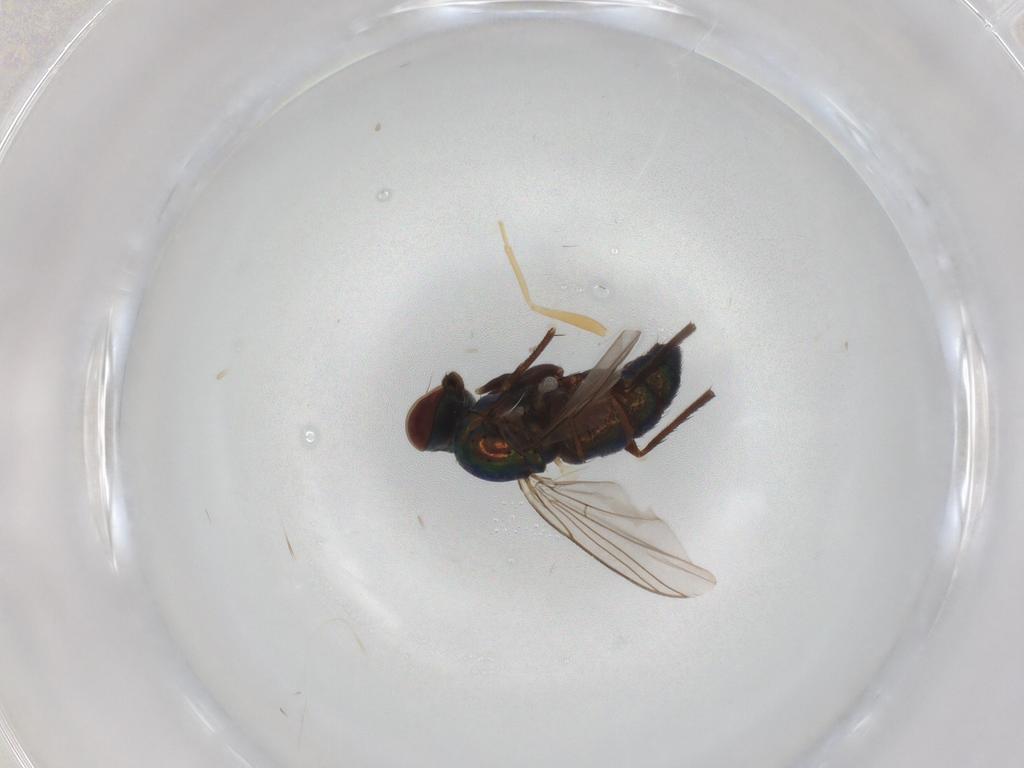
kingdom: Animalia
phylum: Arthropoda
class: Insecta
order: Diptera
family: Dolichopodidae
